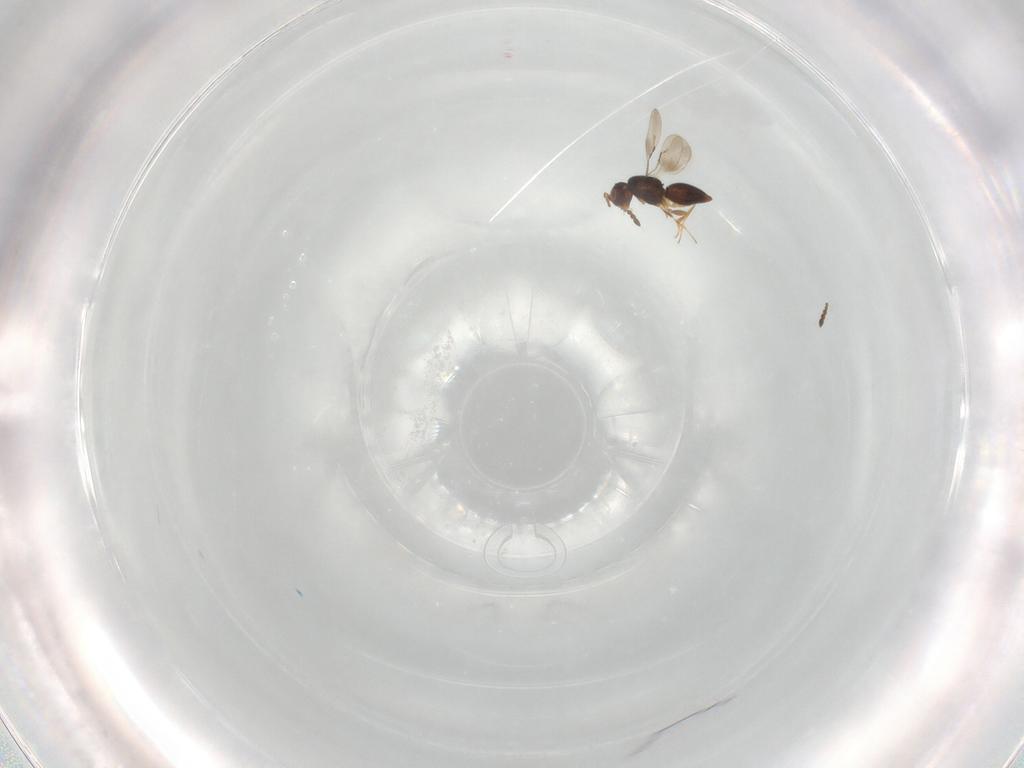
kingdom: Animalia
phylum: Arthropoda
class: Insecta
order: Hymenoptera
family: Ceraphronidae
